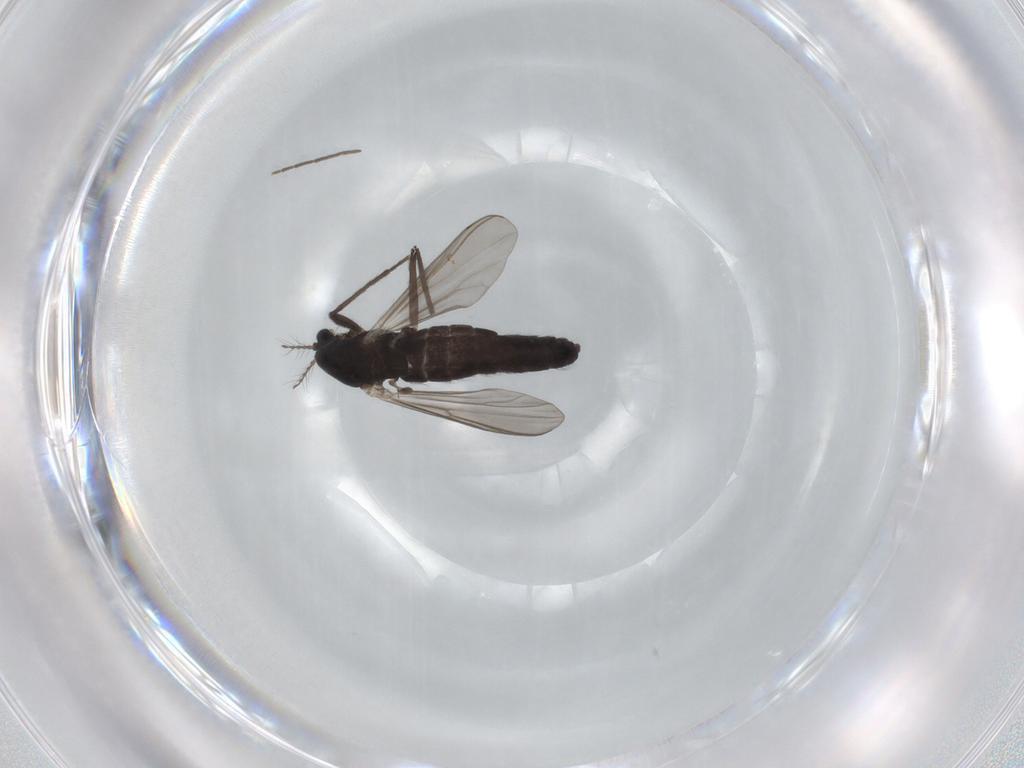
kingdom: Animalia
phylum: Arthropoda
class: Insecta
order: Diptera
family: Chironomidae
